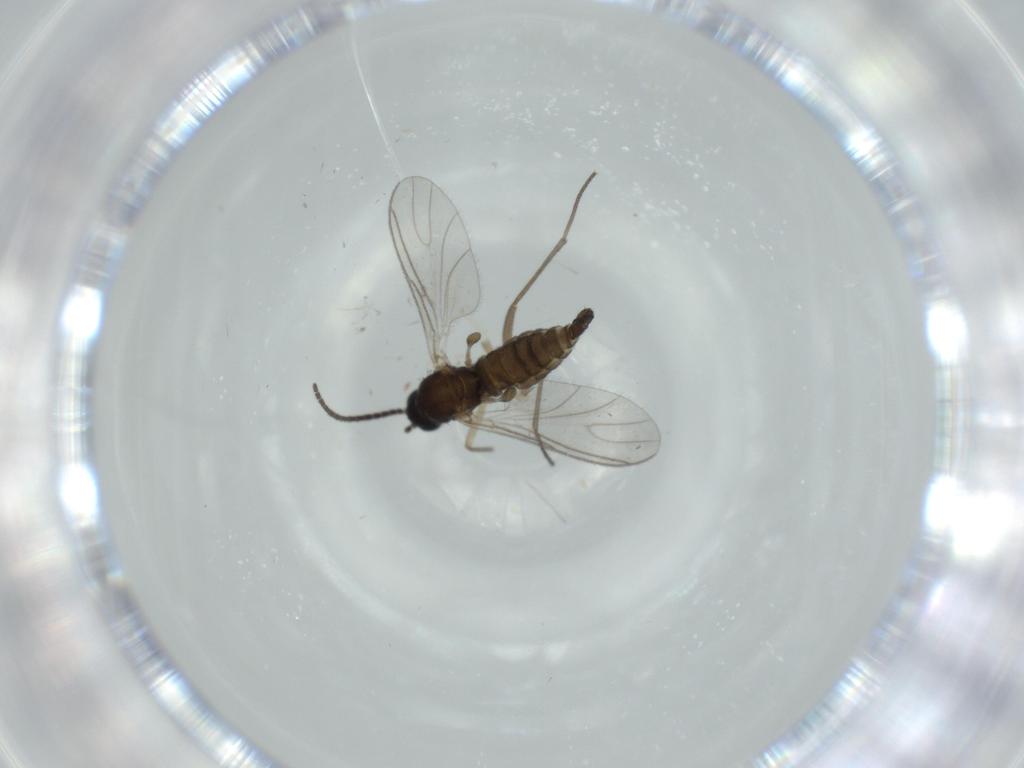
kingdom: Animalia
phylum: Arthropoda
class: Insecta
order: Diptera
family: Sciaridae
